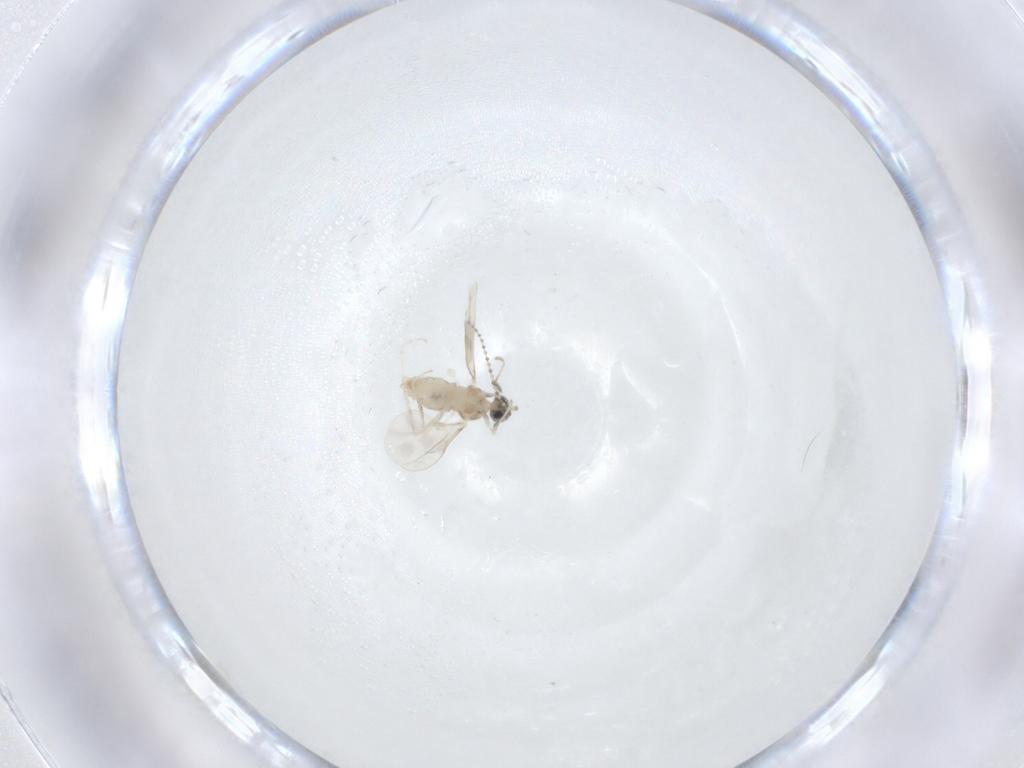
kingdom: Animalia
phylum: Arthropoda
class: Insecta
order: Diptera
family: Cecidomyiidae
